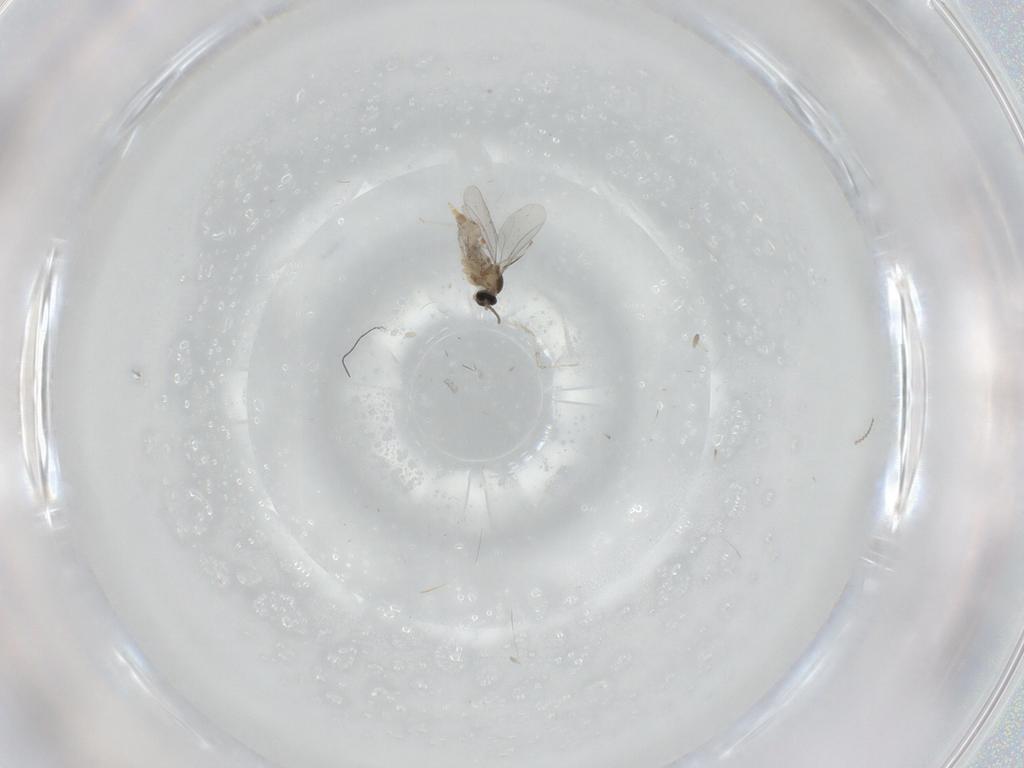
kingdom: Animalia
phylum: Arthropoda
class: Insecta
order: Diptera
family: Cecidomyiidae
